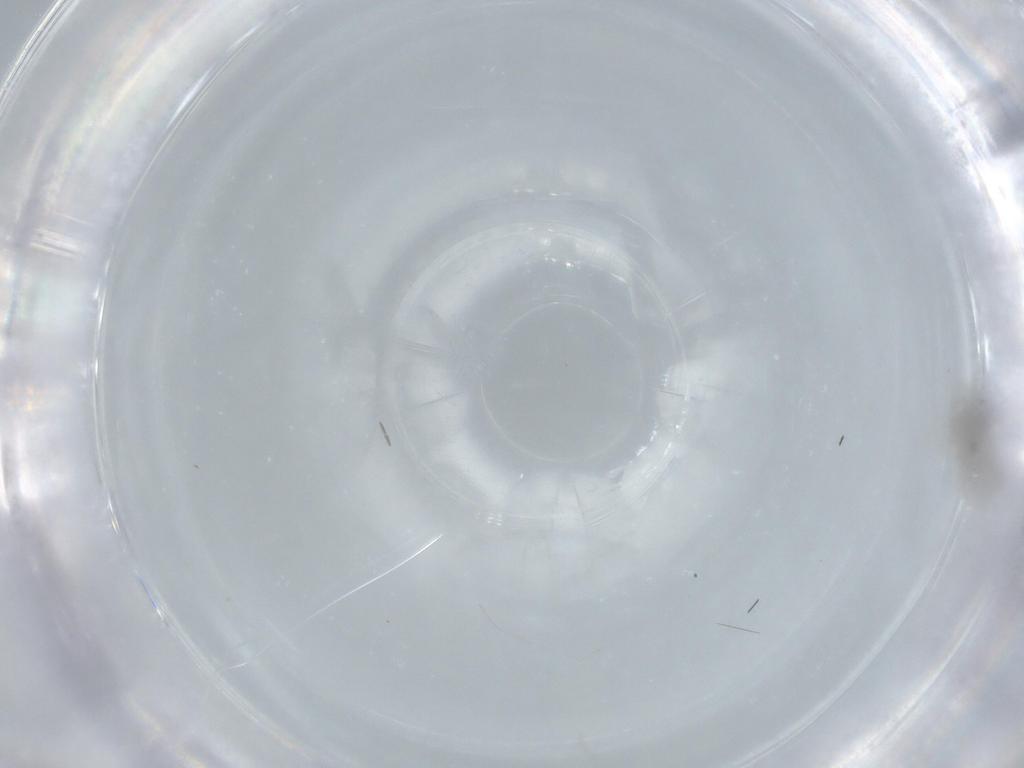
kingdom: Animalia
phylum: Arthropoda
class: Insecta
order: Diptera
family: Cecidomyiidae
